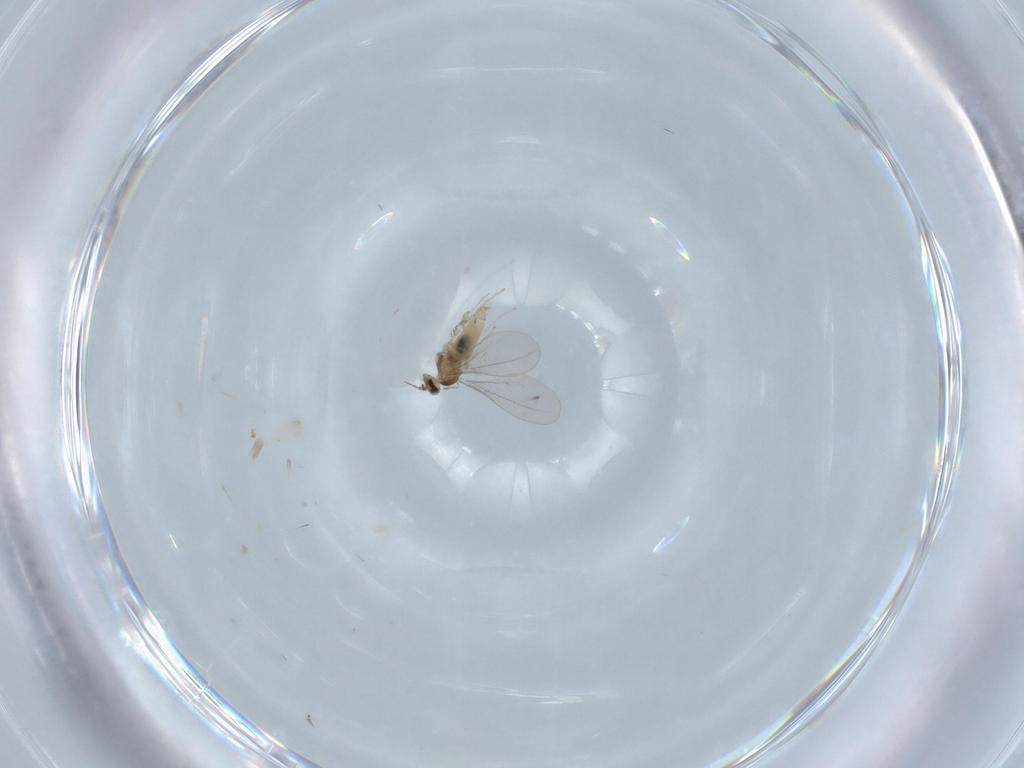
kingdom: Animalia
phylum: Arthropoda
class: Insecta
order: Diptera
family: Cecidomyiidae
